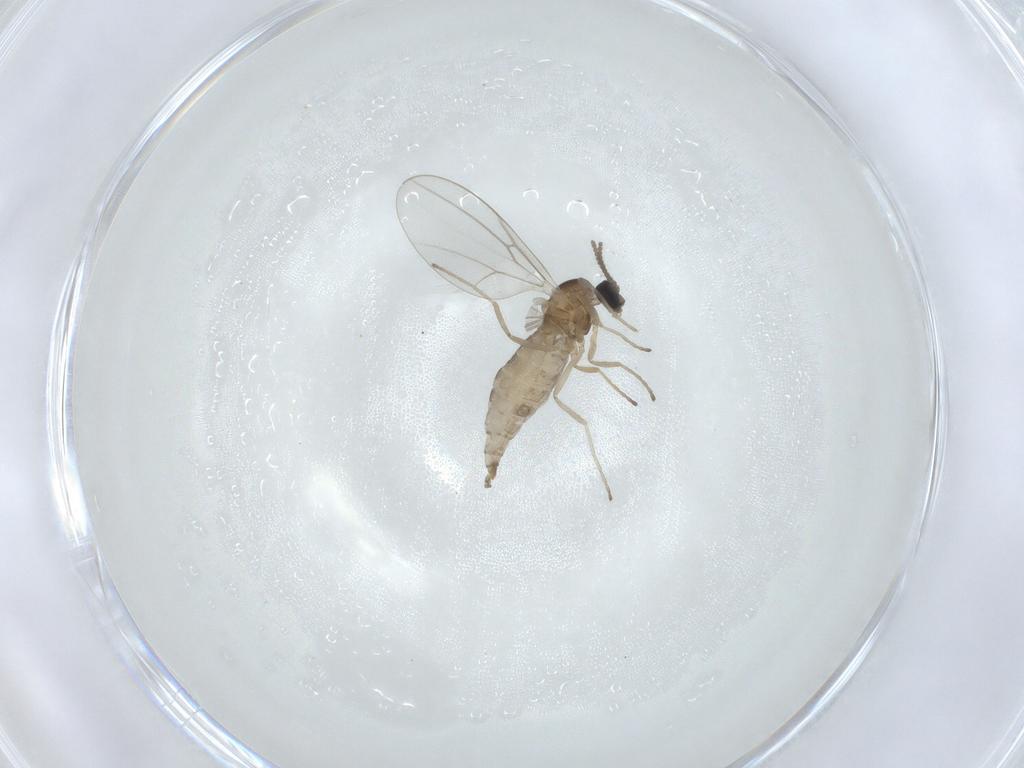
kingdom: Animalia
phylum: Arthropoda
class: Insecta
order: Diptera
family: Cecidomyiidae
